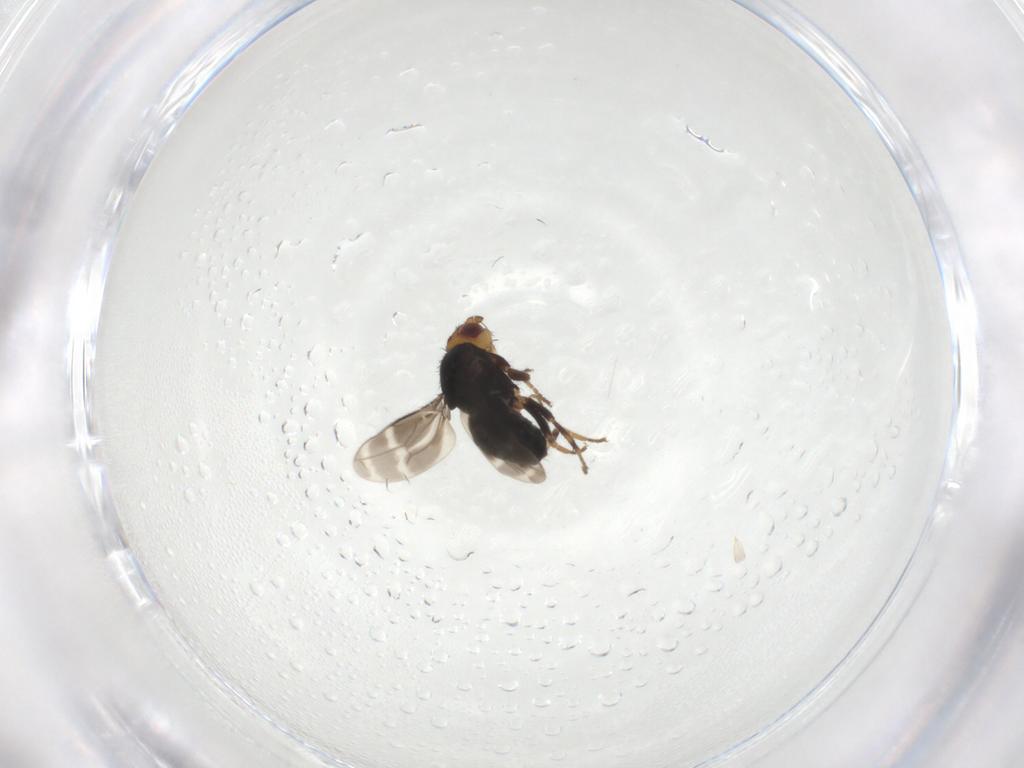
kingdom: Animalia
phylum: Arthropoda
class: Insecta
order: Diptera
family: Sphaeroceridae
